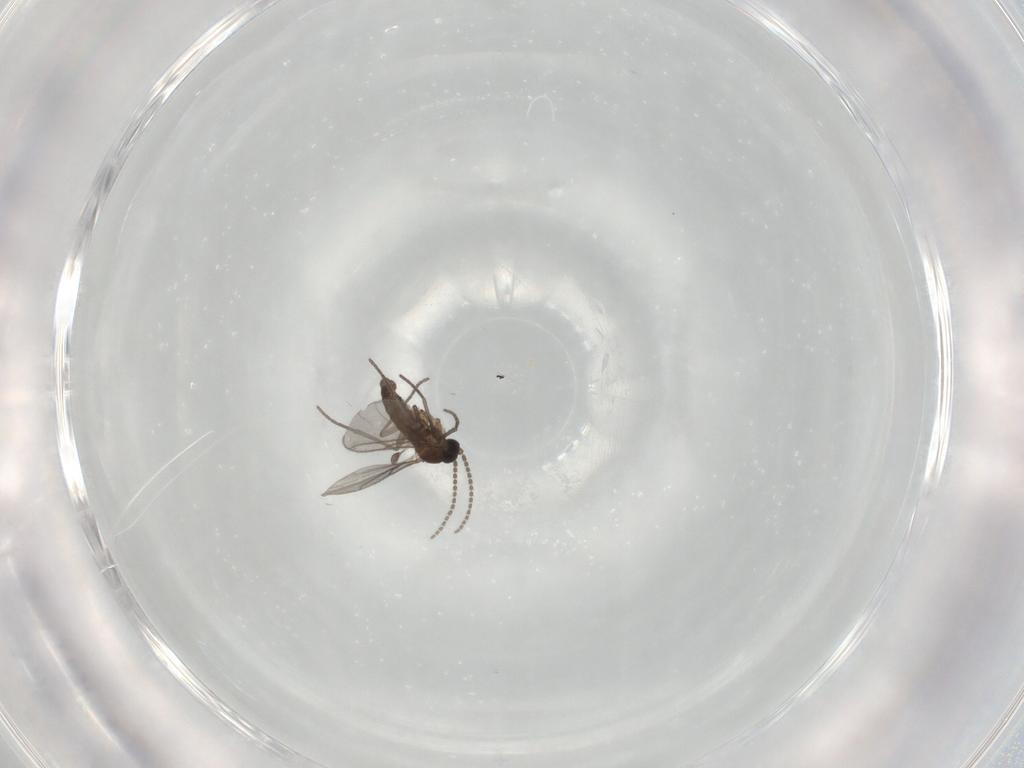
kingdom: Animalia
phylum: Arthropoda
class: Insecta
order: Diptera
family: Sciaridae
